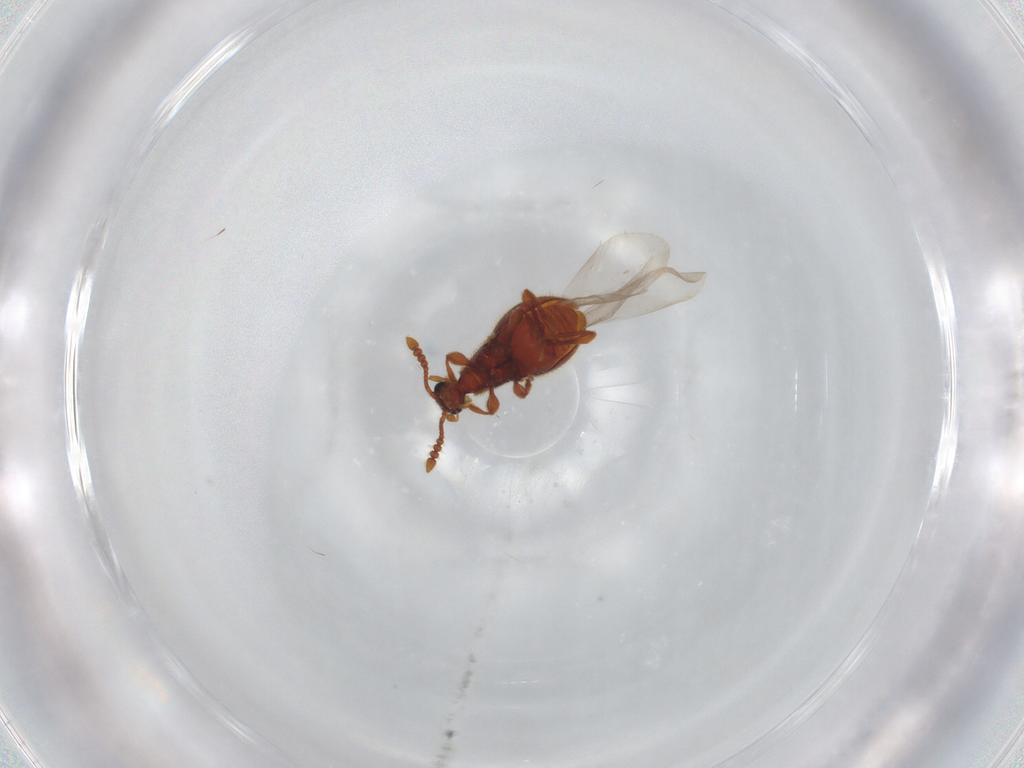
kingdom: Animalia
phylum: Arthropoda
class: Insecta
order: Coleoptera
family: Staphylinidae
